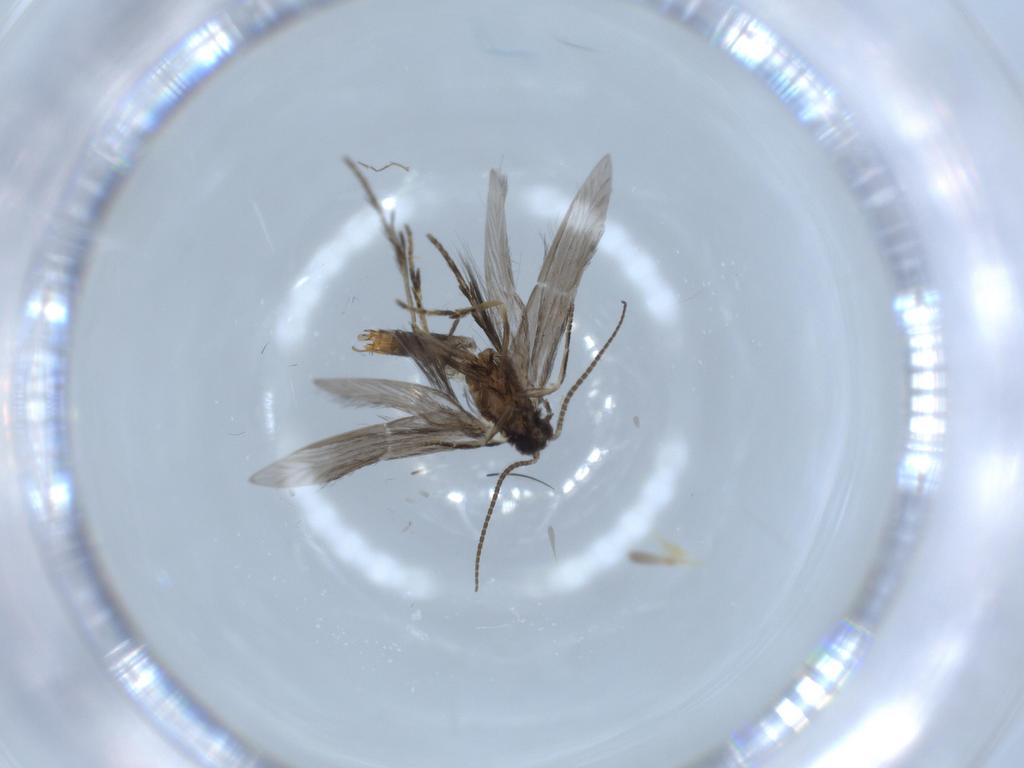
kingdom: Animalia
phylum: Arthropoda
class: Insecta
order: Trichoptera
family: Hydroptilidae
